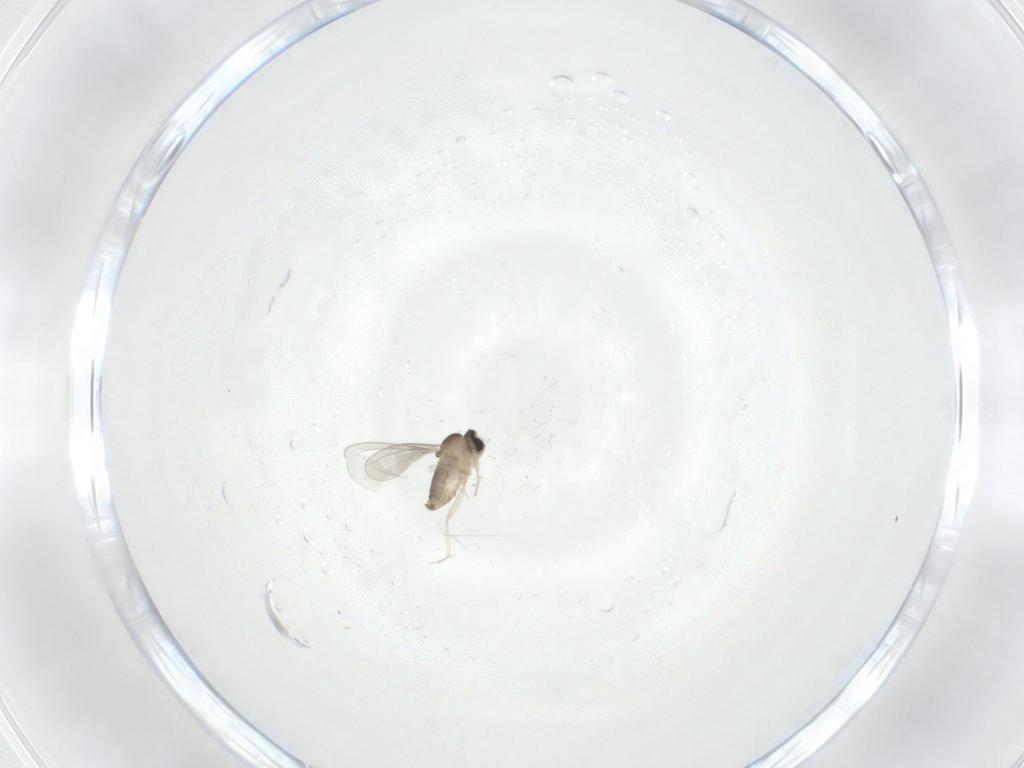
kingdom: Animalia
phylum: Arthropoda
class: Insecta
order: Diptera
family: Cecidomyiidae
